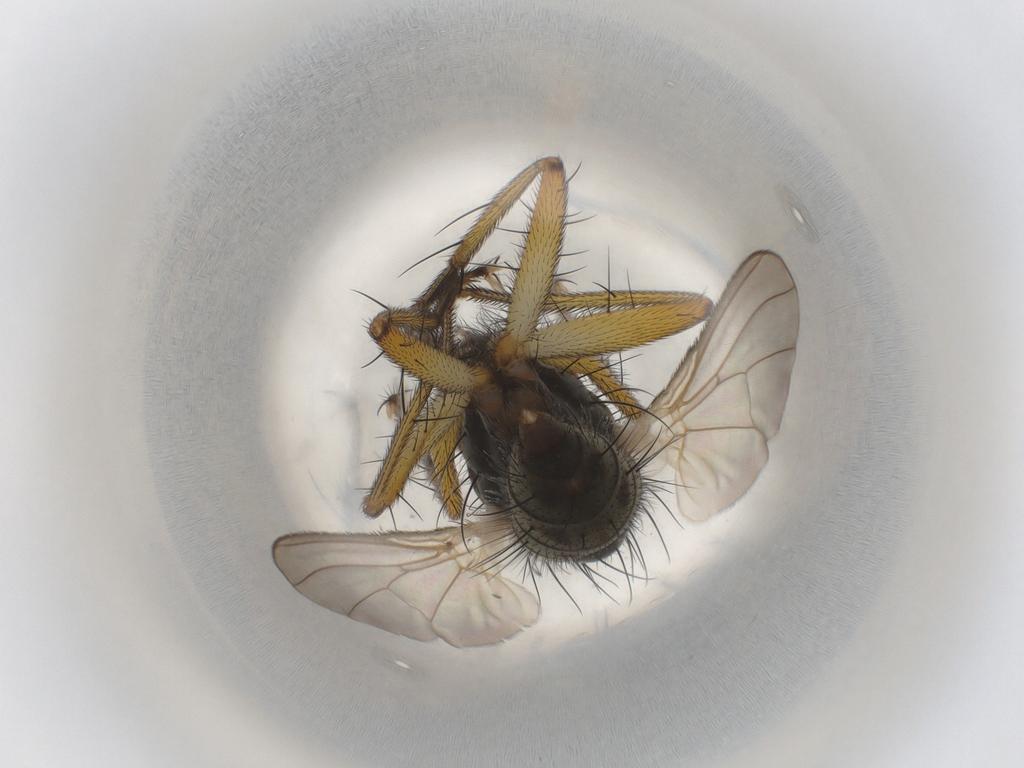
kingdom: Animalia
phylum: Arthropoda
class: Insecta
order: Diptera
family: Muscidae
